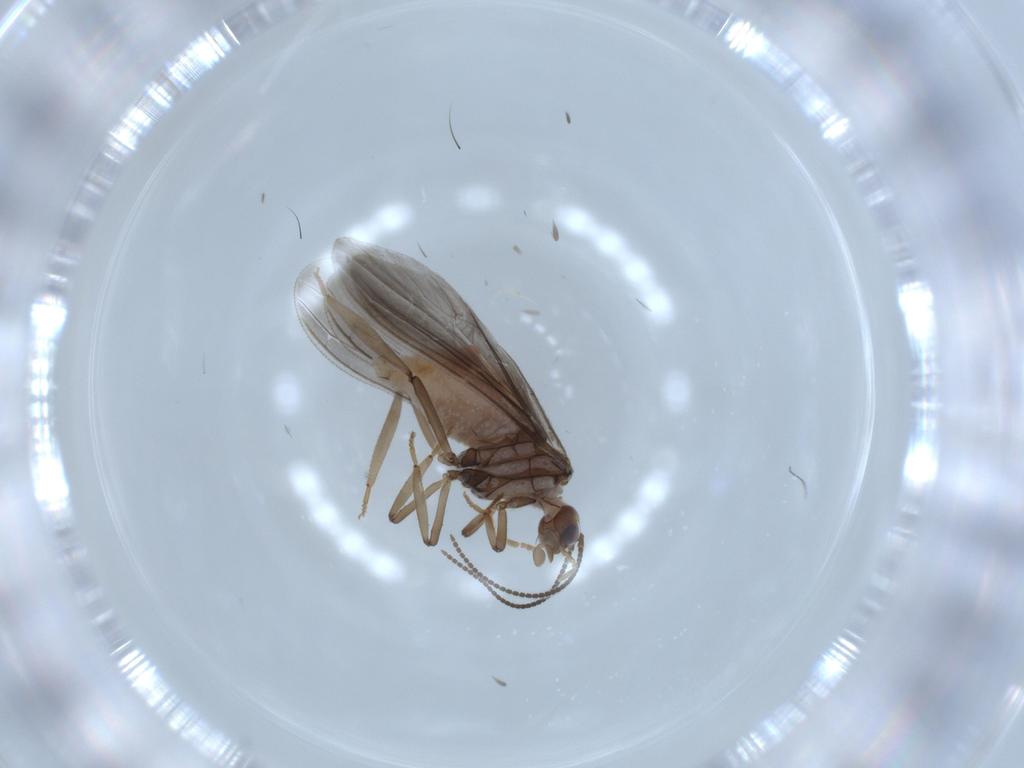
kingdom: Animalia
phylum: Arthropoda
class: Insecta
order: Neuroptera
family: Coniopterygidae
